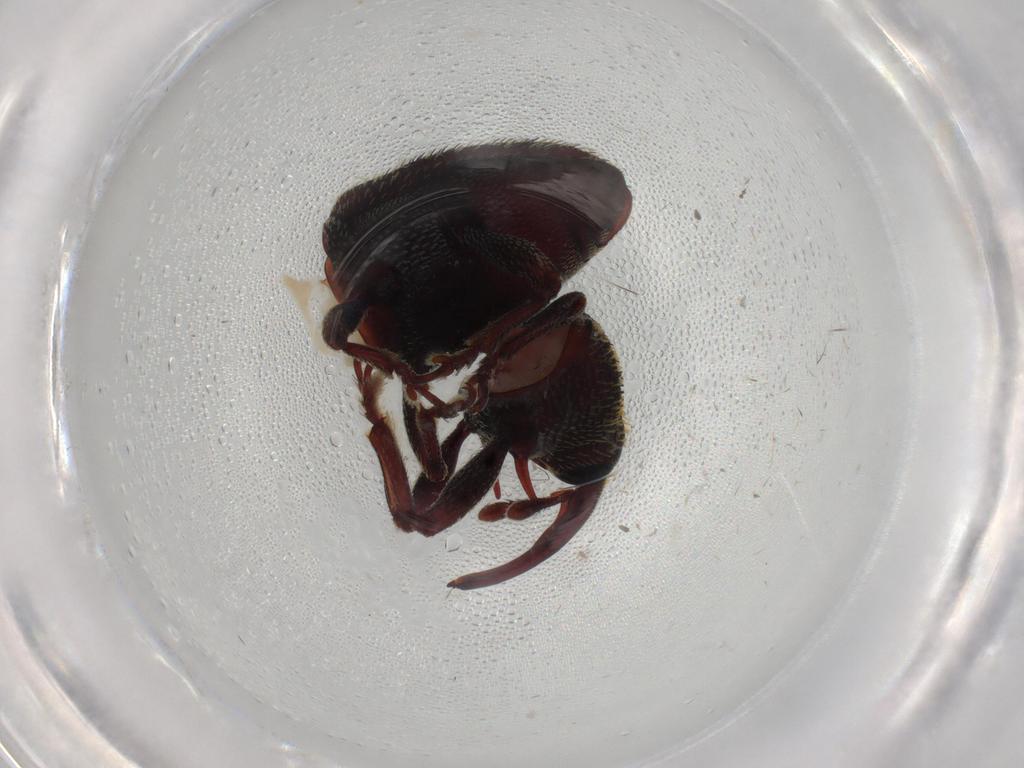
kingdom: Animalia
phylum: Arthropoda
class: Insecta
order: Coleoptera
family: Curculionidae
